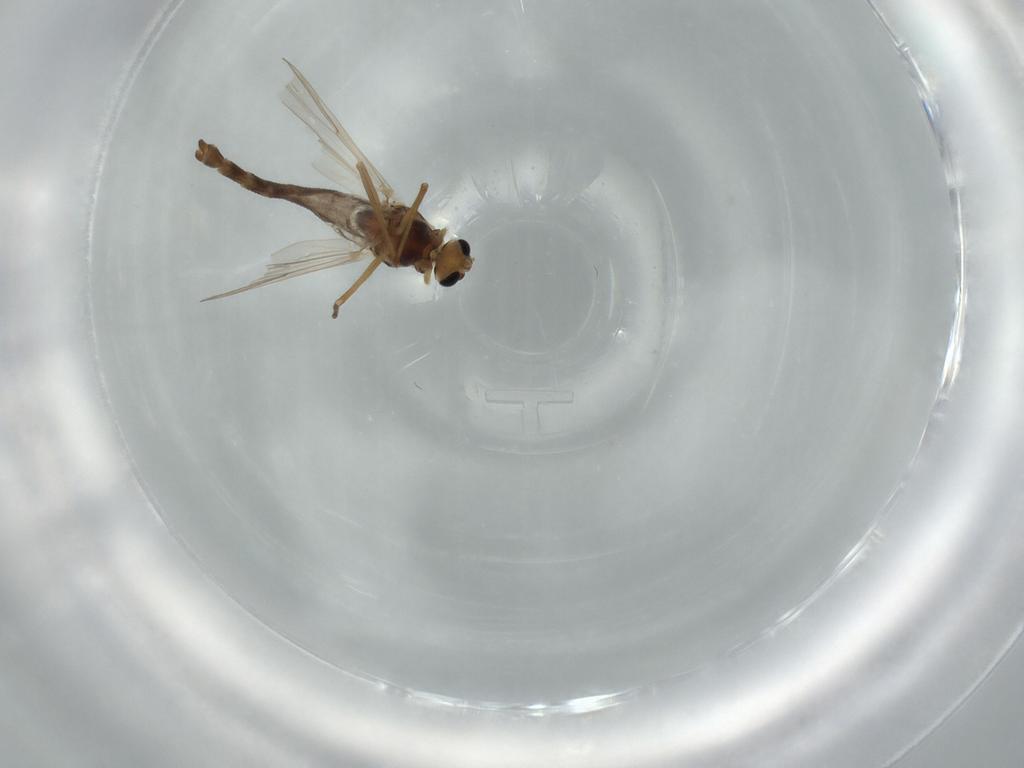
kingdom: Animalia
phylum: Arthropoda
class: Insecta
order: Diptera
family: Chironomidae
